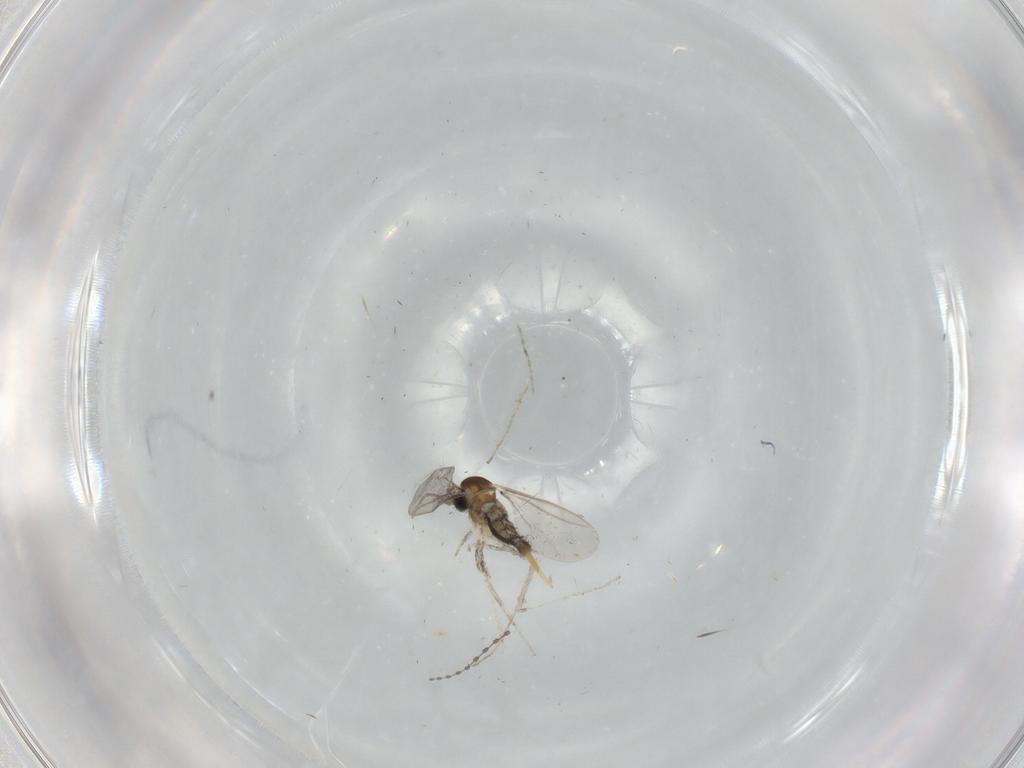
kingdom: Animalia
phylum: Arthropoda
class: Insecta
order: Diptera
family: Cecidomyiidae
